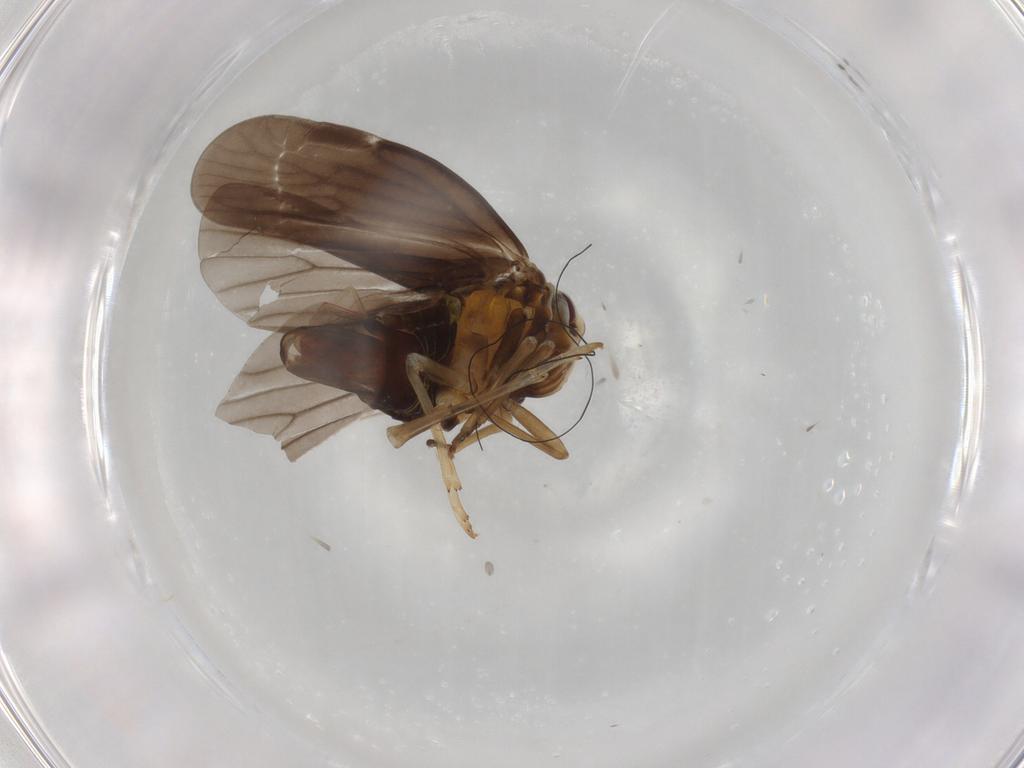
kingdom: Animalia
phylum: Arthropoda
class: Insecta
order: Hemiptera
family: Derbidae
